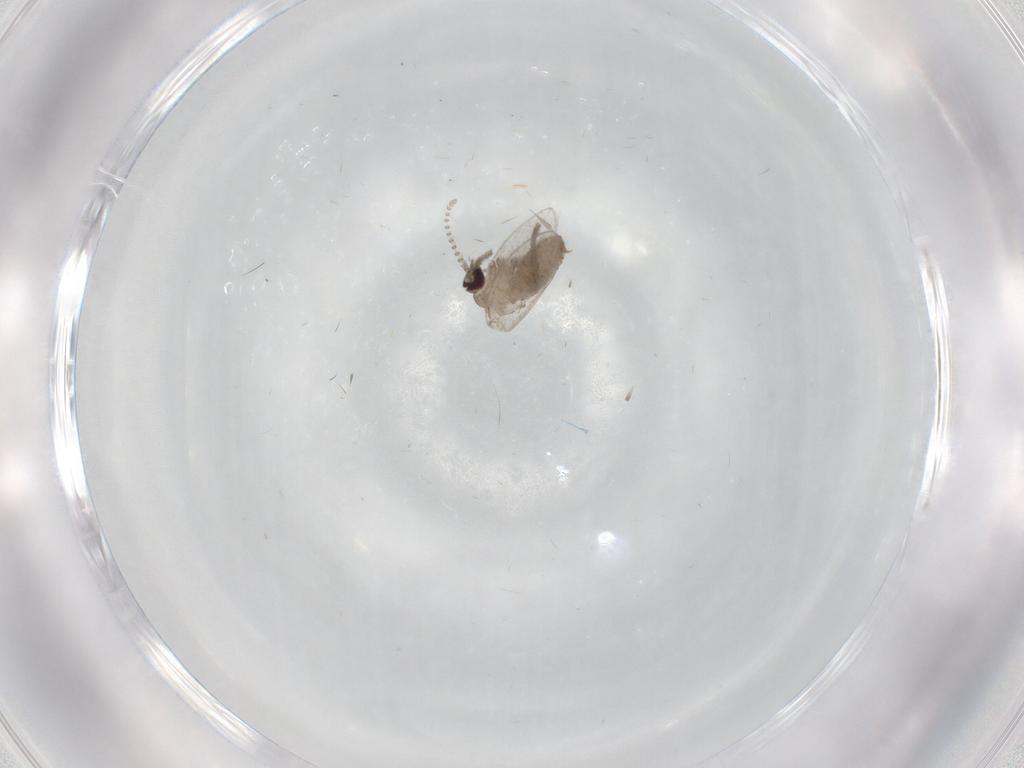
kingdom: Animalia
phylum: Arthropoda
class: Insecta
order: Diptera
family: Psychodidae
